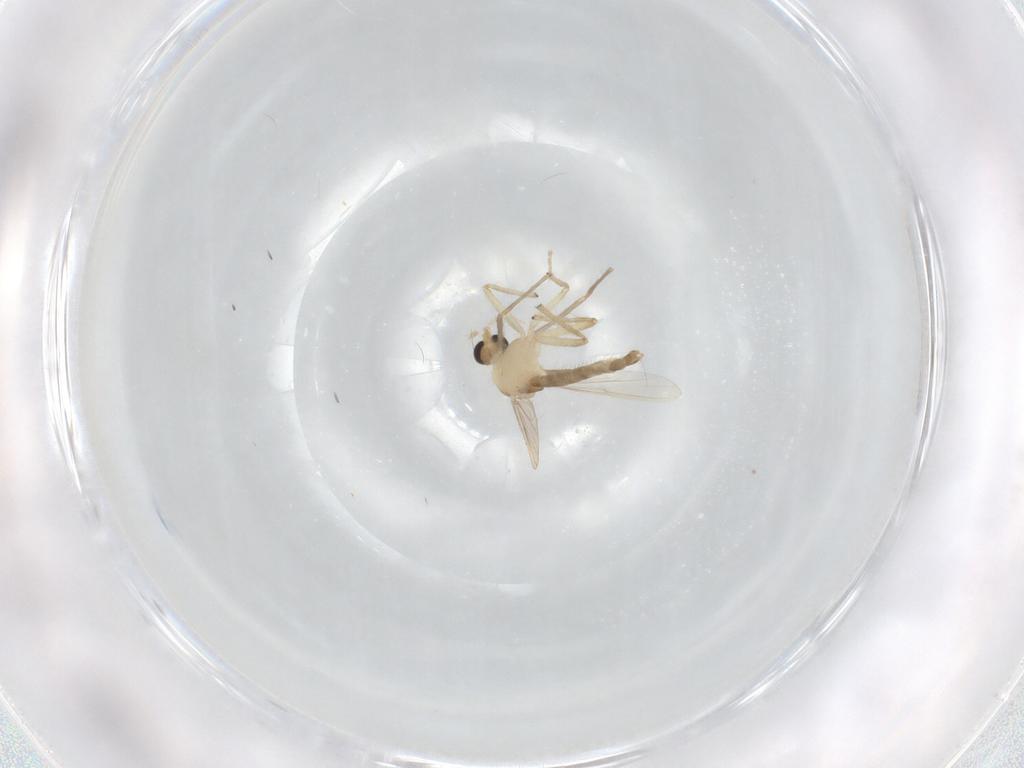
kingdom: Animalia
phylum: Arthropoda
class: Insecta
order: Diptera
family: Chironomidae
